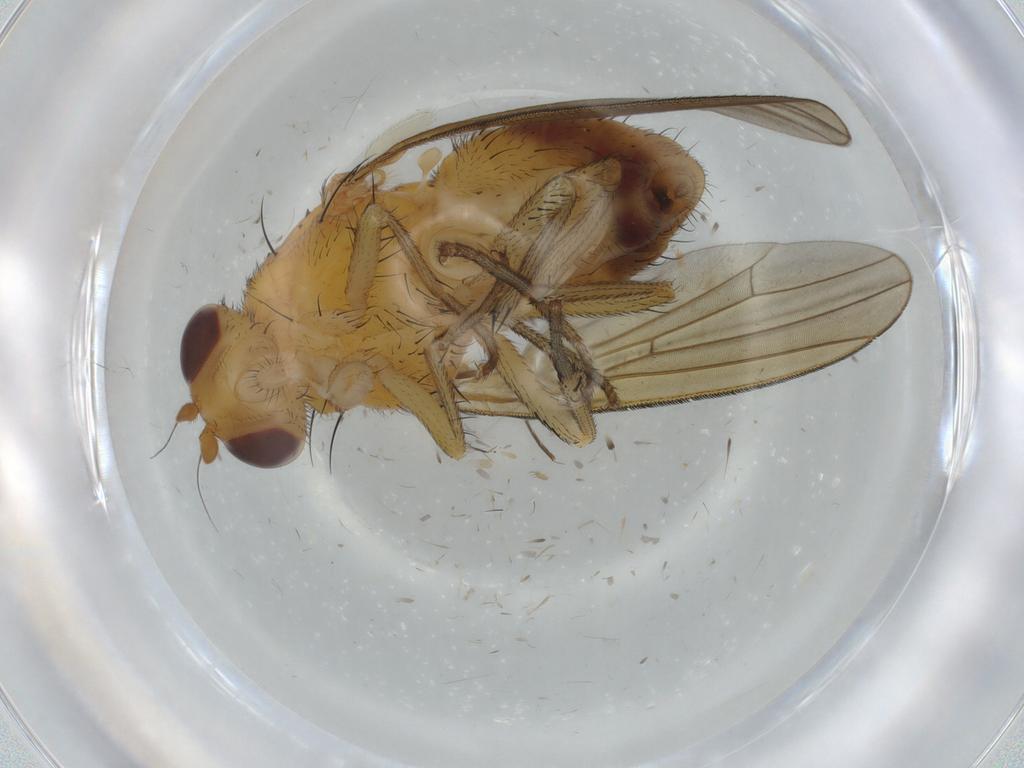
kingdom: Animalia
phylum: Arthropoda
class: Insecta
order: Diptera
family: Lauxaniidae
